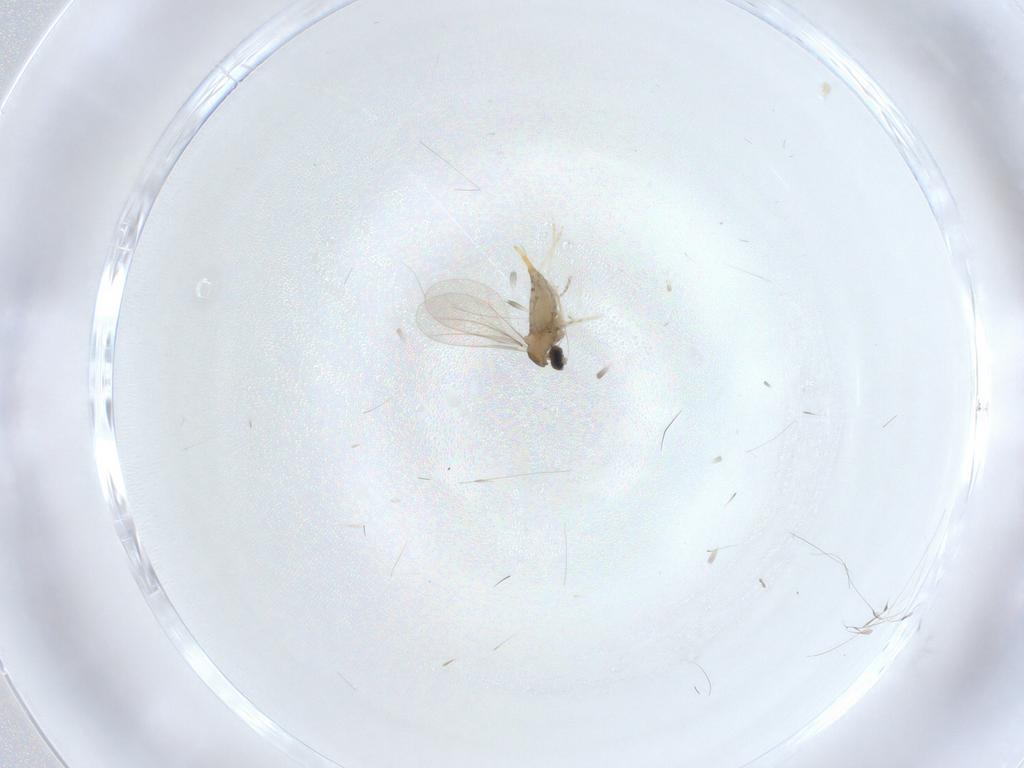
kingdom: Animalia
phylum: Arthropoda
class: Insecta
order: Diptera
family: Cecidomyiidae
